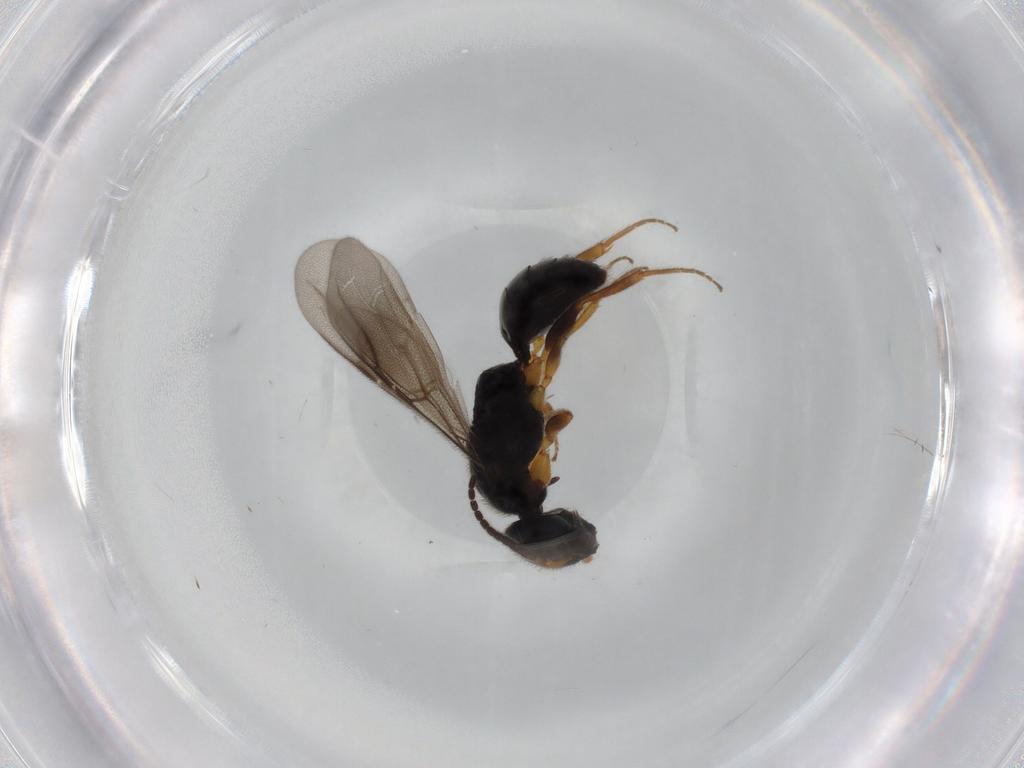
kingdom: Animalia
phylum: Arthropoda
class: Insecta
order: Hymenoptera
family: Bethylidae
